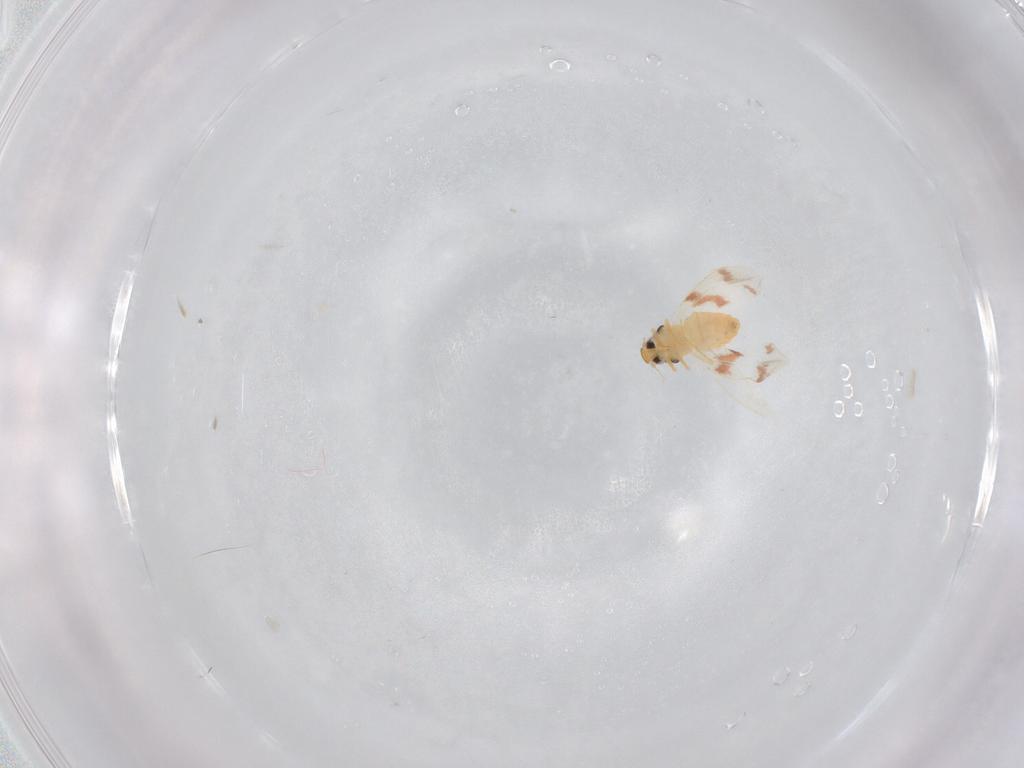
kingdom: Animalia
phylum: Arthropoda
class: Insecta
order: Hemiptera
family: Aleyrodidae
